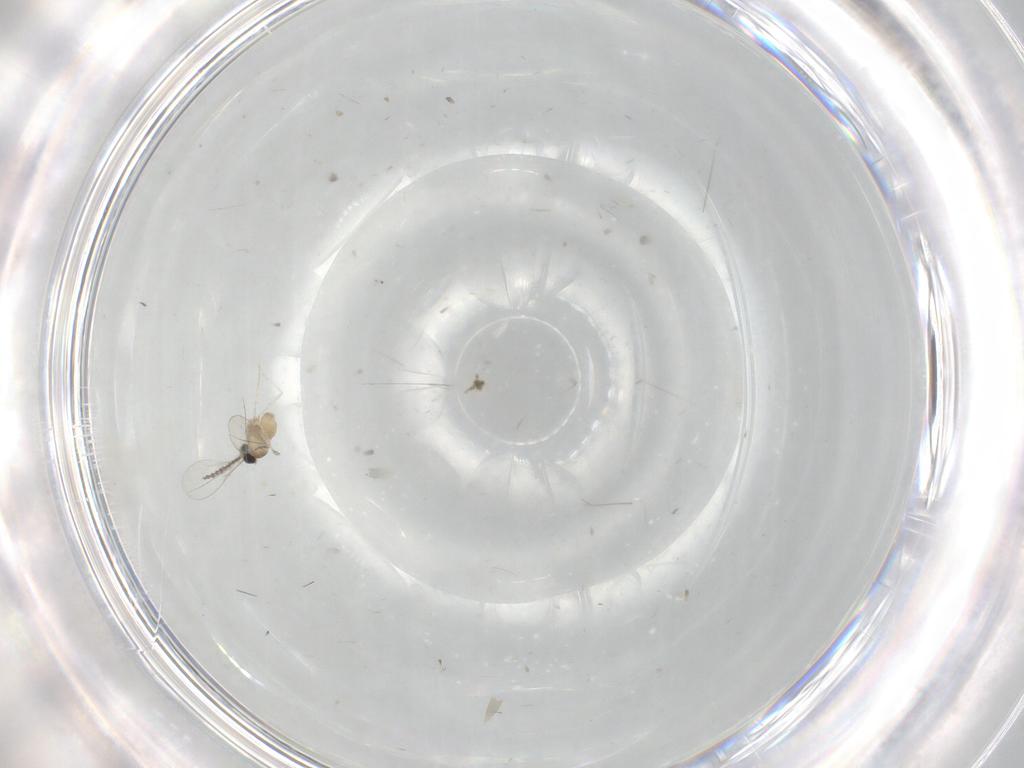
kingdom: Animalia
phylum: Arthropoda
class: Insecta
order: Diptera
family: Cecidomyiidae
